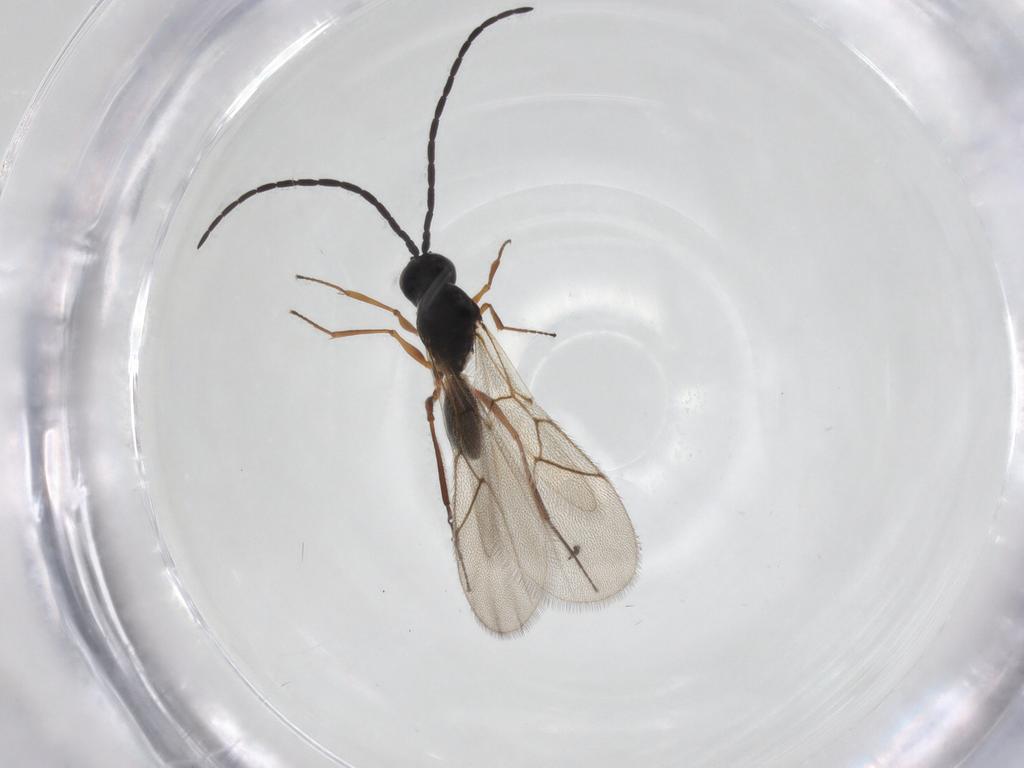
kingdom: Animalia
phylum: Arthropoda
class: Insecta
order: Hymenoptera
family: Figitidae
